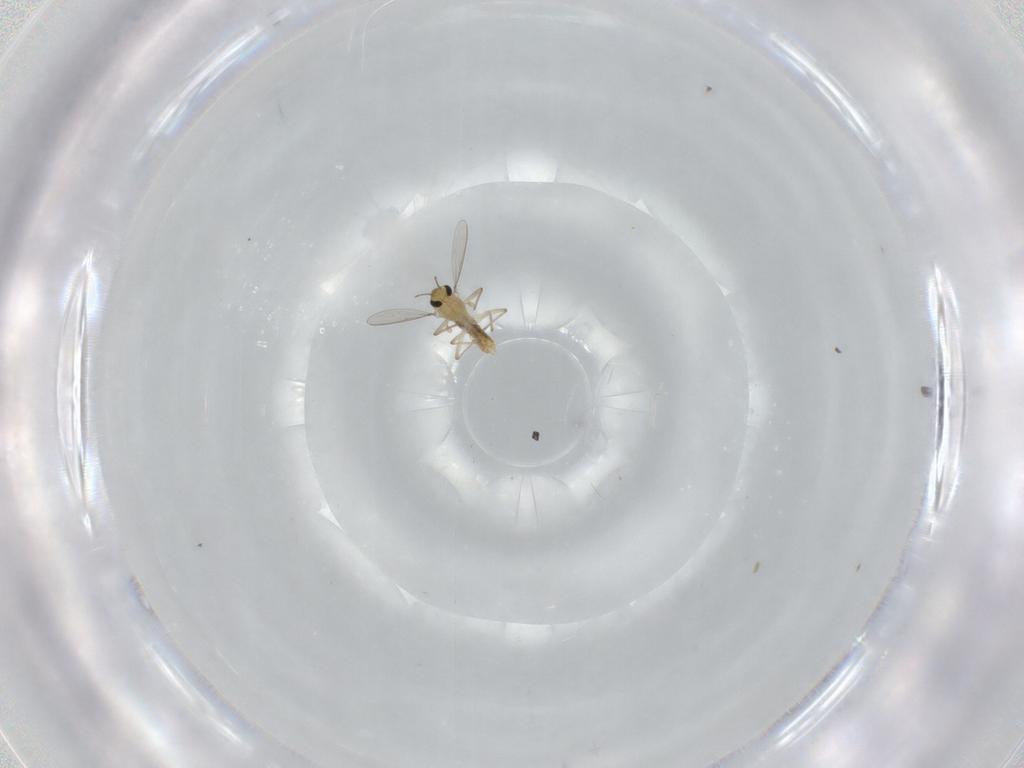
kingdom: Animalia
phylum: Arthropoda
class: Insecta
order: Diptera
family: Chironomidae
